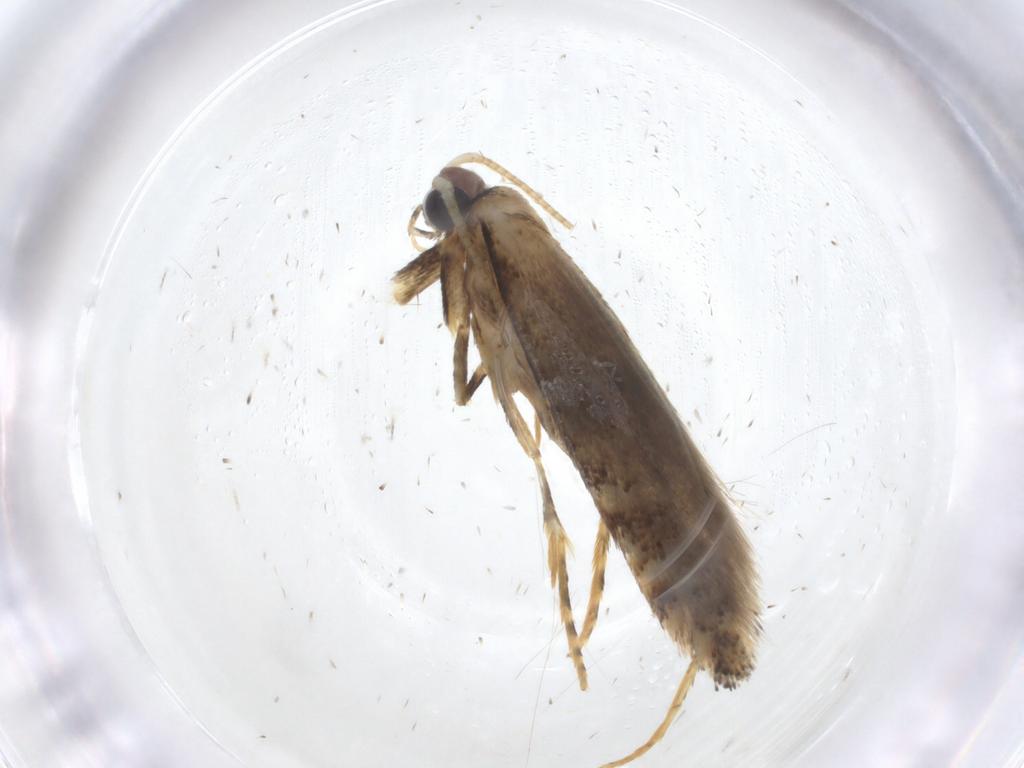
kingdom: Animalia
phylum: Arthropoda
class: Insecta
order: Lepidoptera
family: Tineidae
